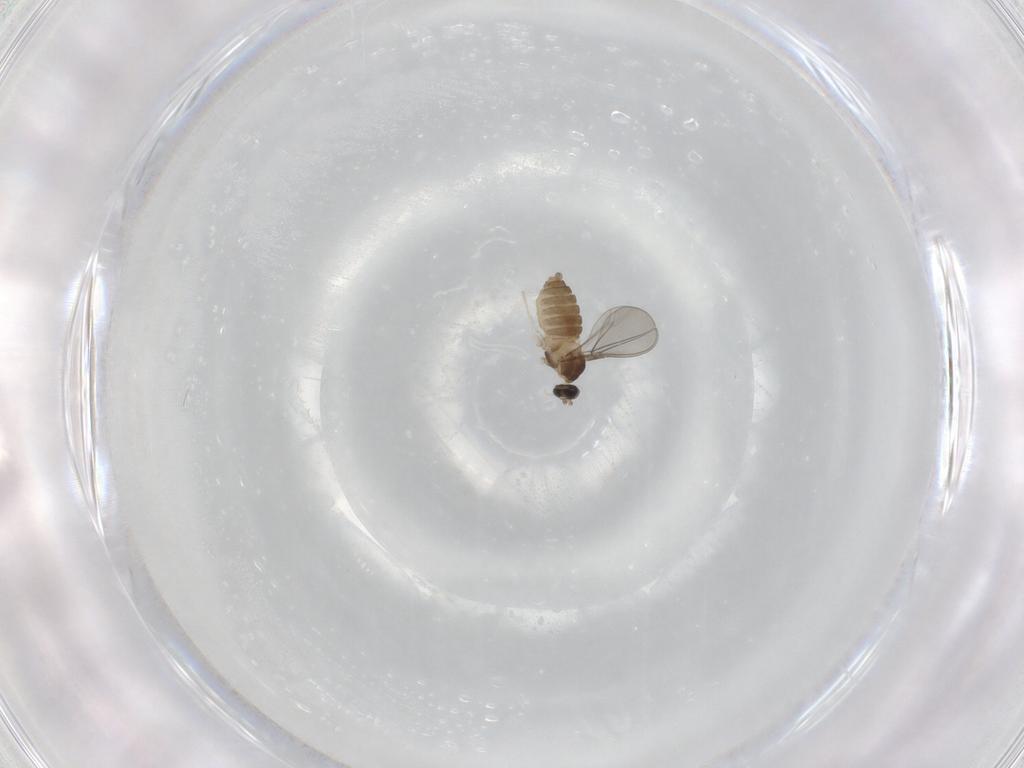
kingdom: Animalia
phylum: Arthropoda
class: Insecta
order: Diptera
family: Cecidomyiidae
